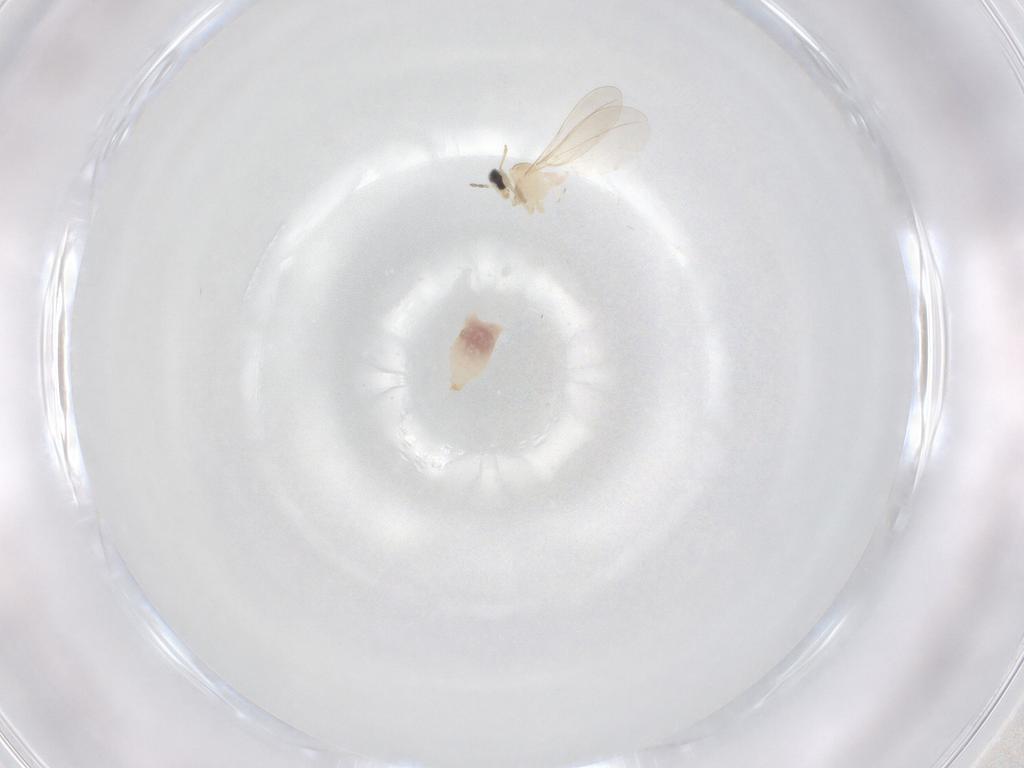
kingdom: Animalia
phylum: Arthropoda
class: Insecta
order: Diptera
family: Cecidomyiidae
